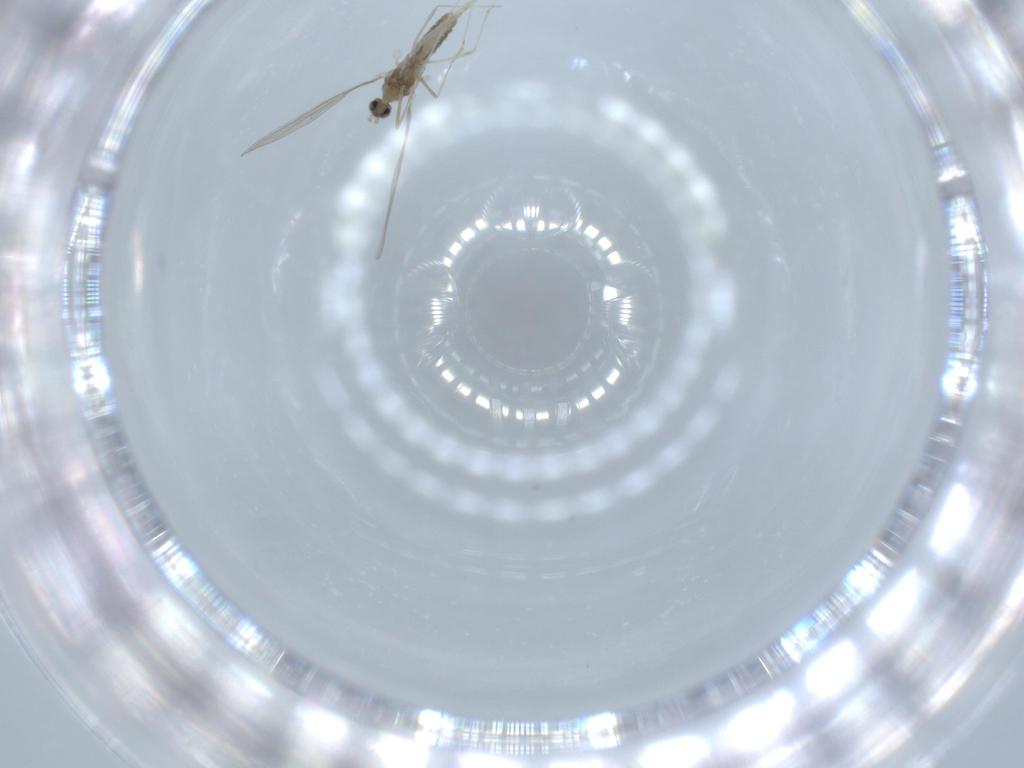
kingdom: Animalia
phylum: Arthropoda
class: Insecta
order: Diptera
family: Cecidomyiidae
